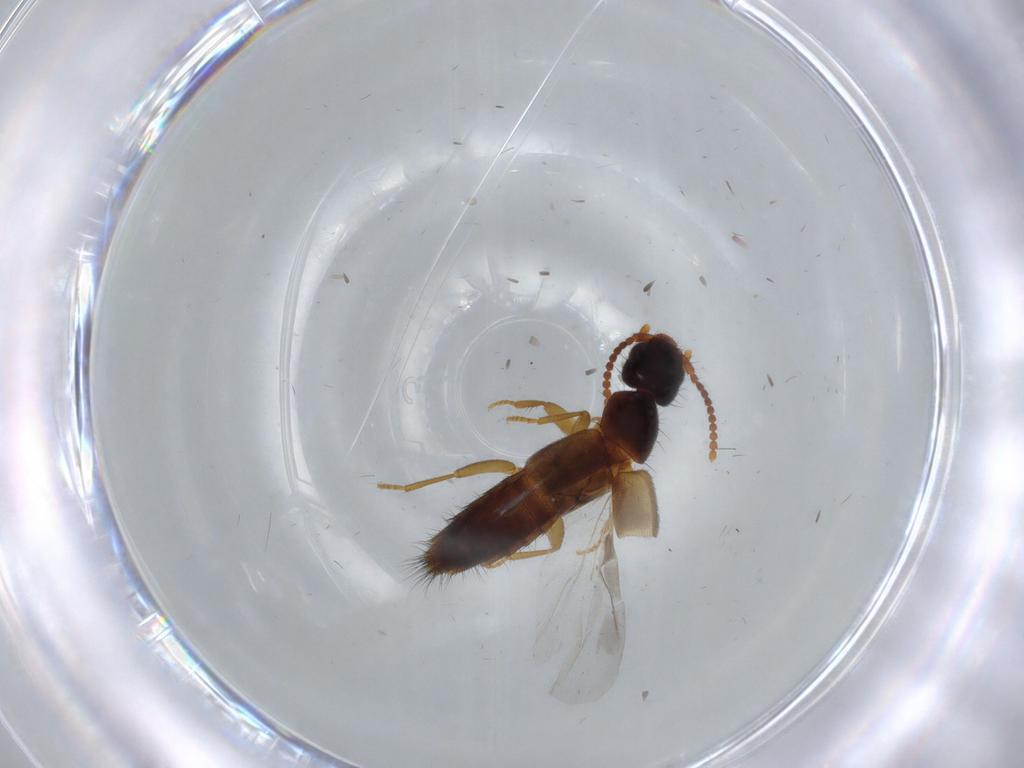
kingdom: Animalia
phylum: Arthropoda
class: Insecta
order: Coleoptera
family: Staphylinidae
